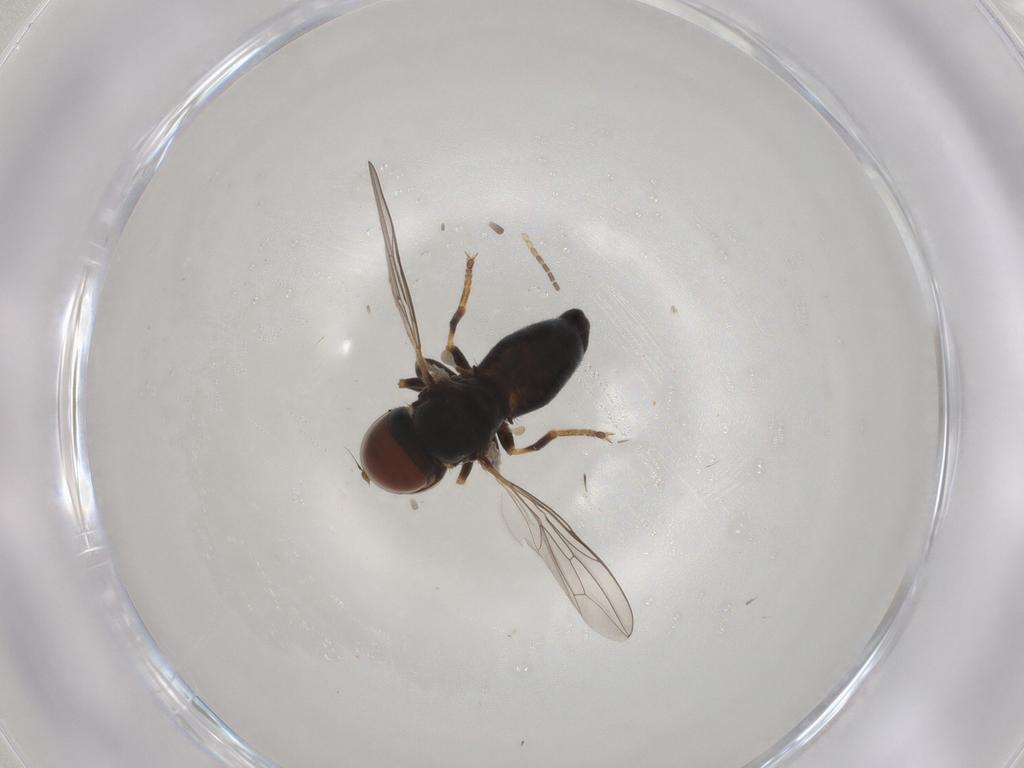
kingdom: Animalia
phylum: Arthropoda
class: Insecta
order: Diptera
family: Pipunculidae
